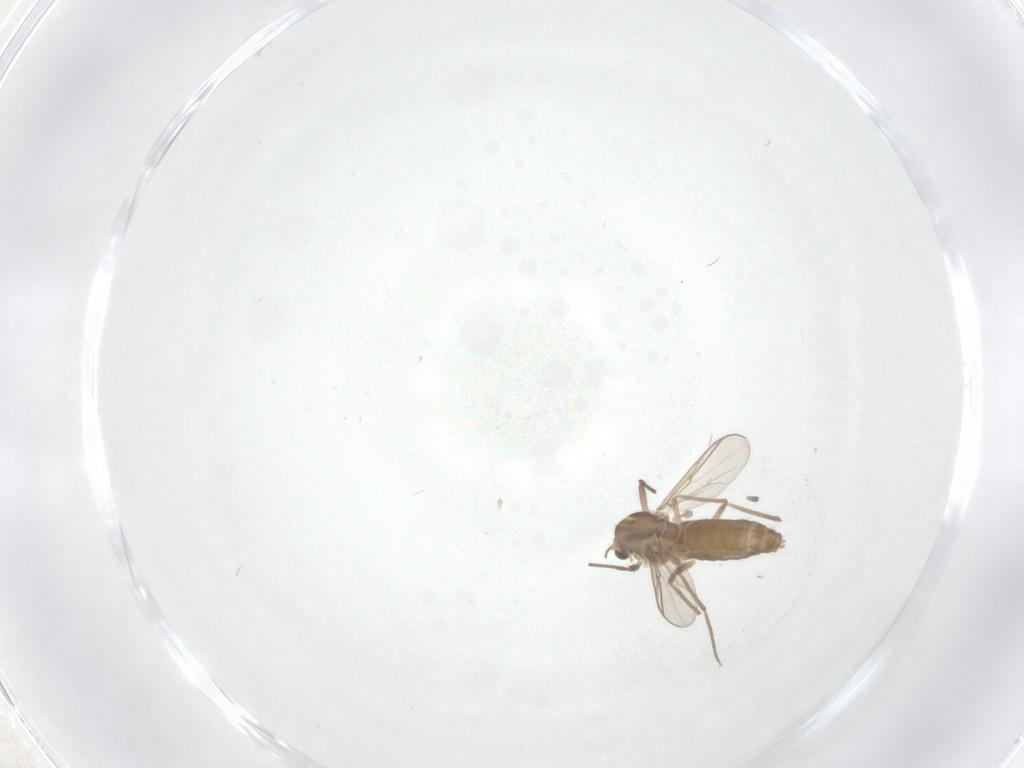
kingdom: Animalia
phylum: Arthropoda
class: Insecta
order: Diptera
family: Chironomidae
